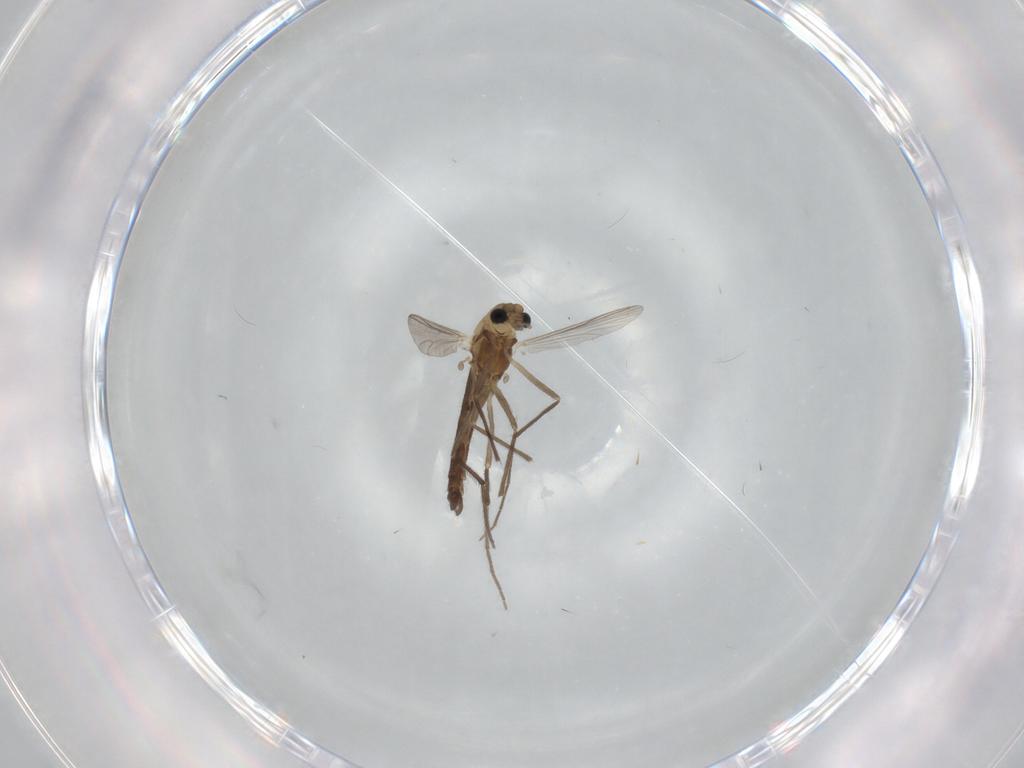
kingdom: Animalia
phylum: Arthropoda
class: Insecta
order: Diptera
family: Chironomidae
